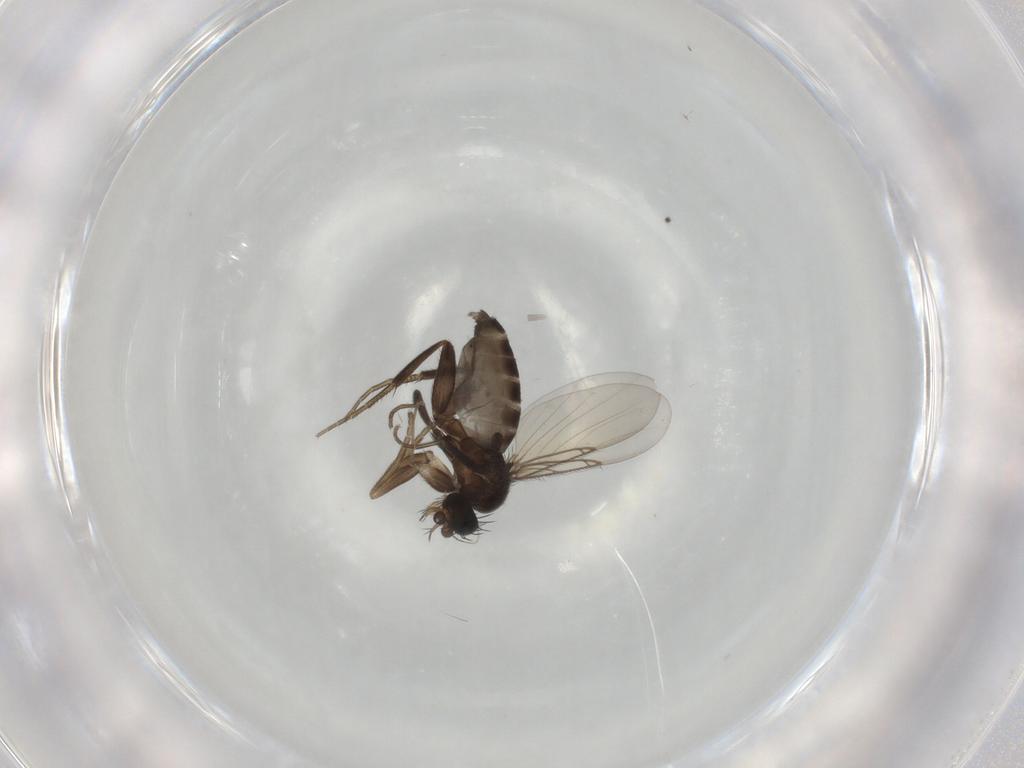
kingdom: Animalia
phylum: Arthropoda
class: Insecta
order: Diptera
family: Phoridae
